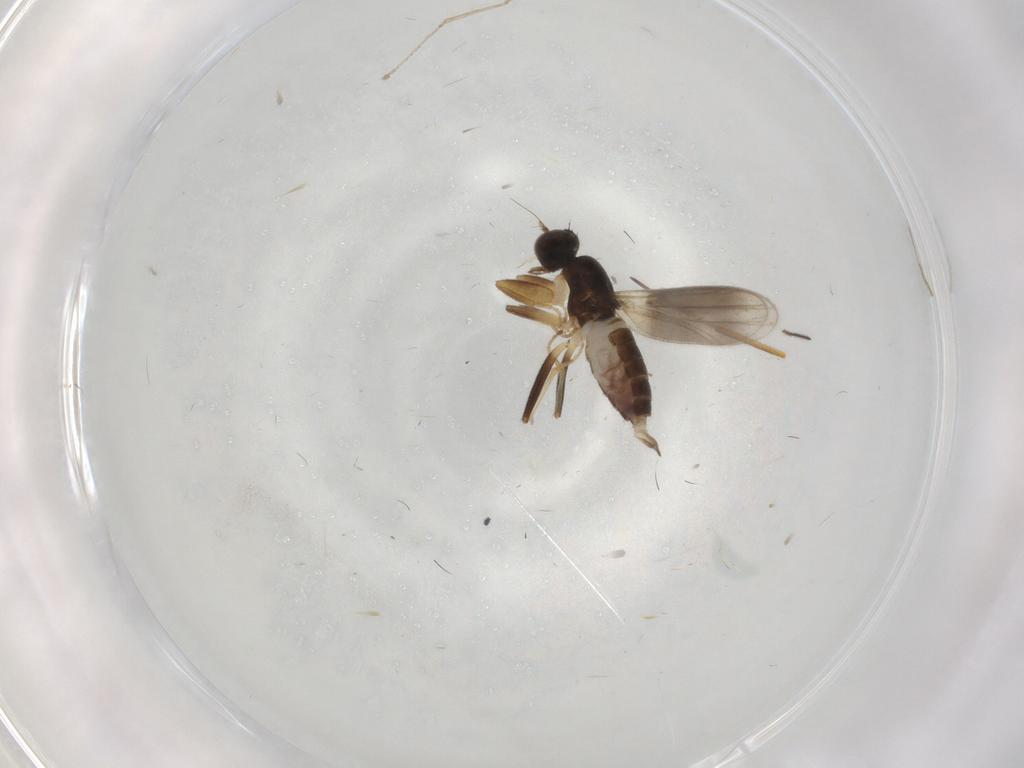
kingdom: Animalia
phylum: Arthropoda
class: Insecta
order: Diptera
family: Hybotidae
